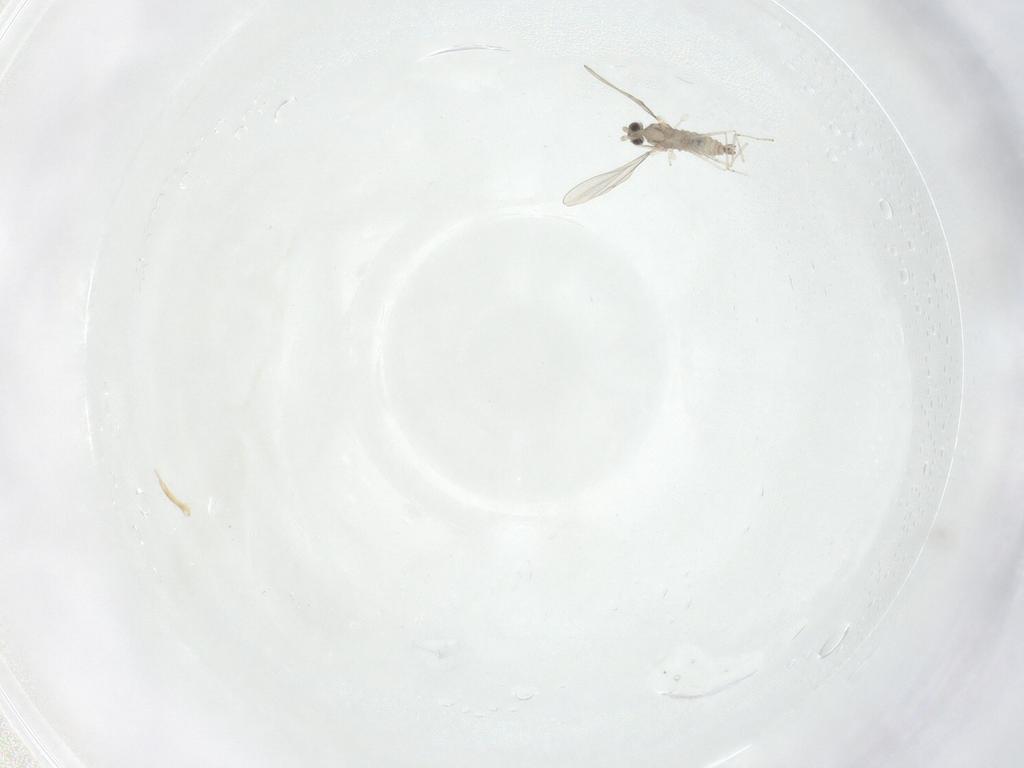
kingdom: Animalia
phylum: Arthropoda
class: Insecta
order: Diptera
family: Cecidomyiidae
